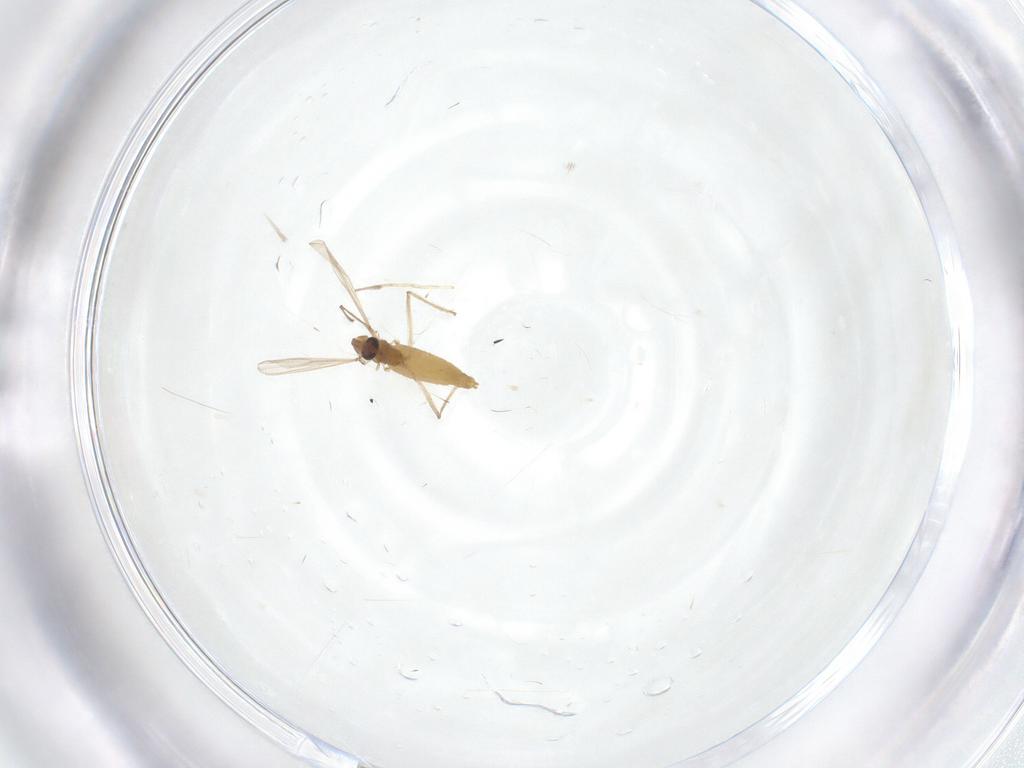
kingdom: Animalia
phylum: Arthropoda
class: Insecta
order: Diptera
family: Chironomidae
